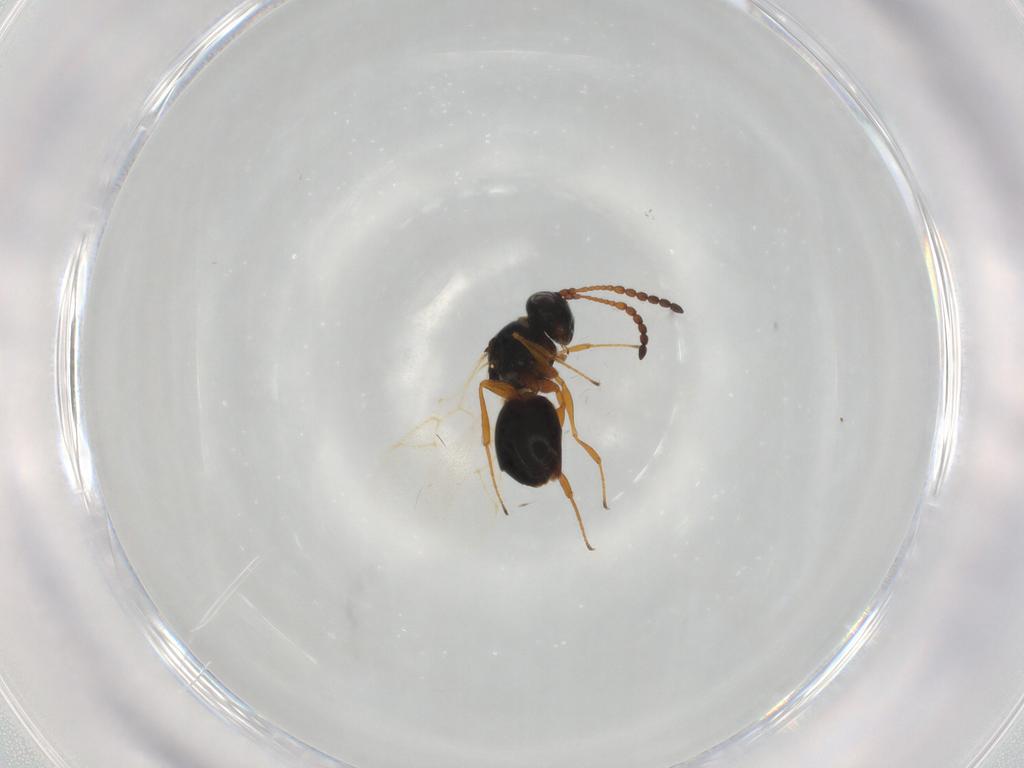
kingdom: Animalia
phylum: Arthropoda
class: Insecta
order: Hymenoptera
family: Figitidae
